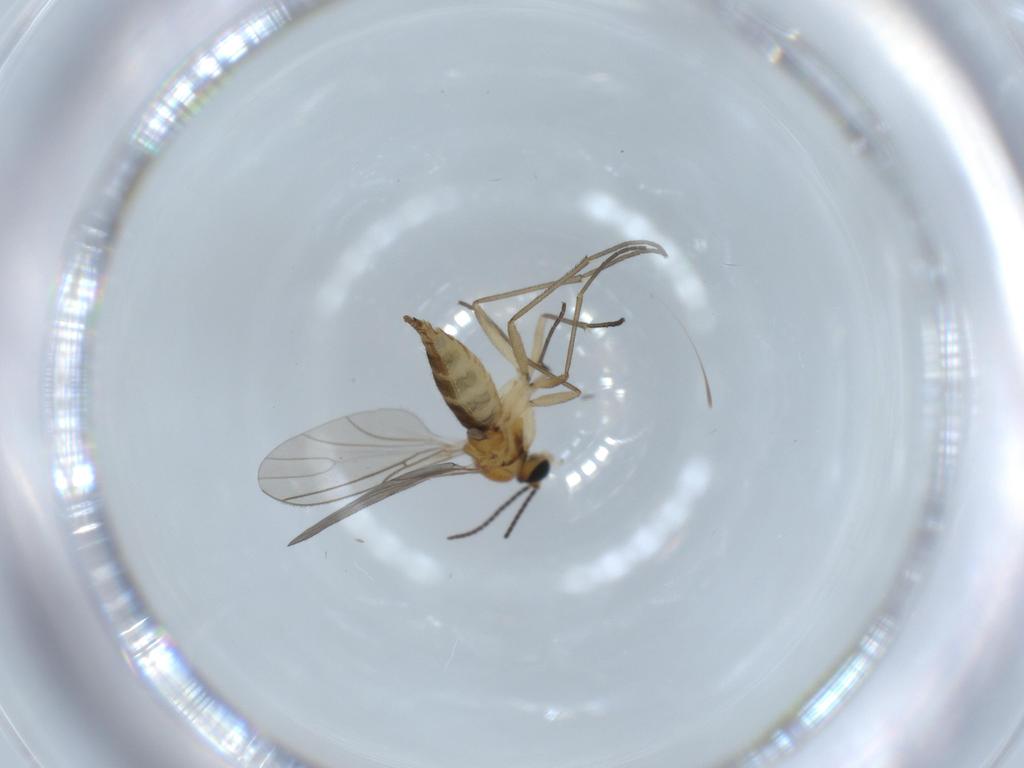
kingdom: Animalia
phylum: Arthropoda
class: Insecta
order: Diptera
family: Sciaridae
